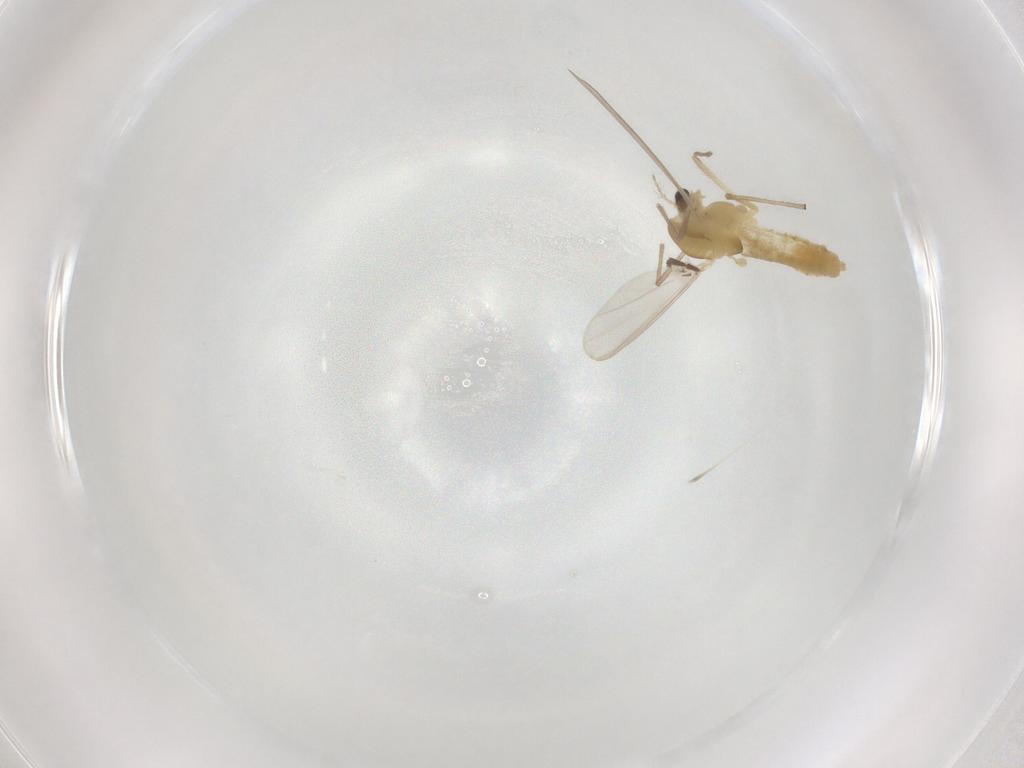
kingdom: Animalia
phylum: Arthropoda
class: Insecta
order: Diptera
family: Chironomidae
